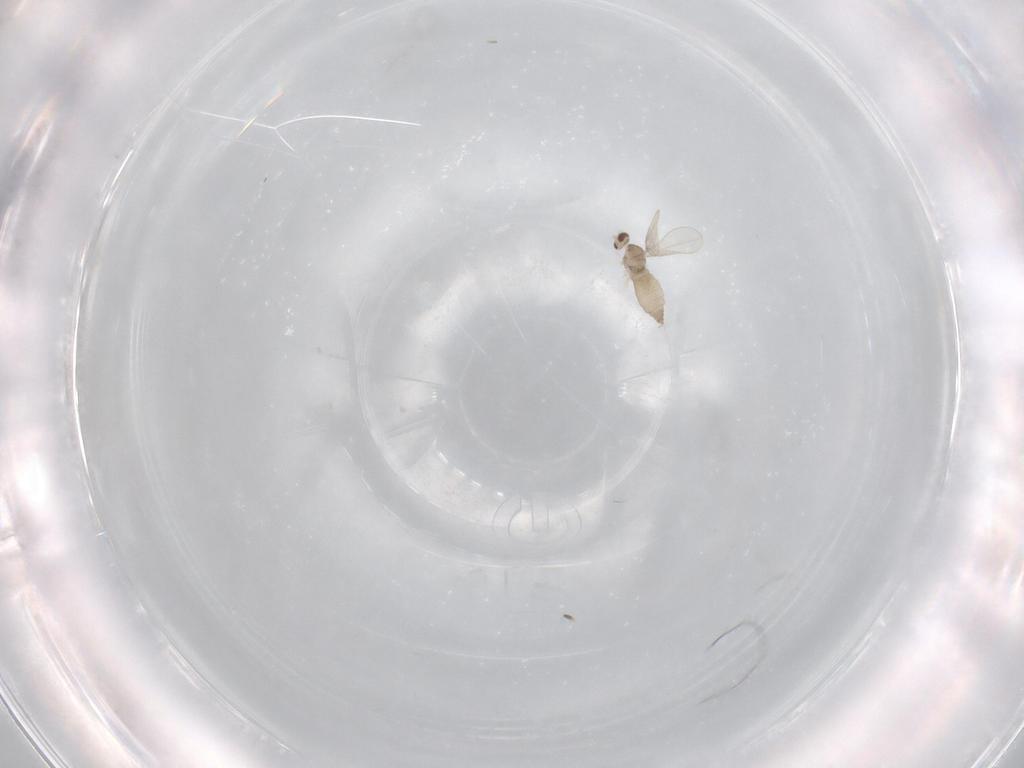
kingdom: Animalia
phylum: Arthropoda
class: Insecta
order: Diptera
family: Cecidomyiidae
